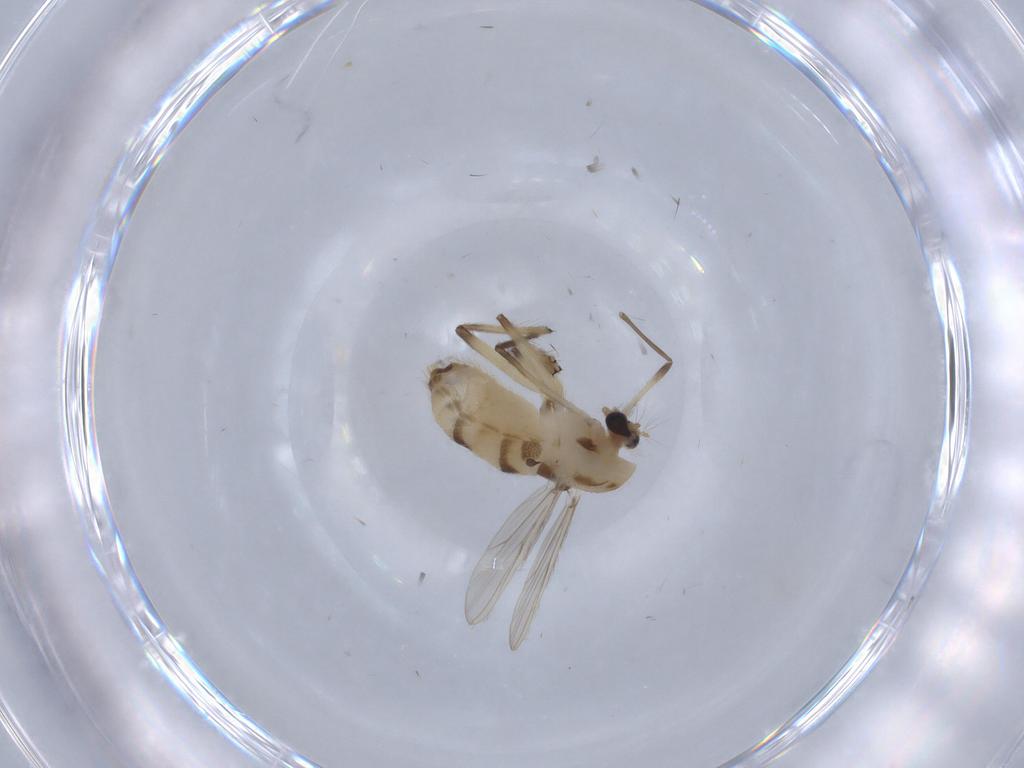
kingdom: Animalia
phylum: Arthropoda
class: Insecta
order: Diptera
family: Chironomidae
